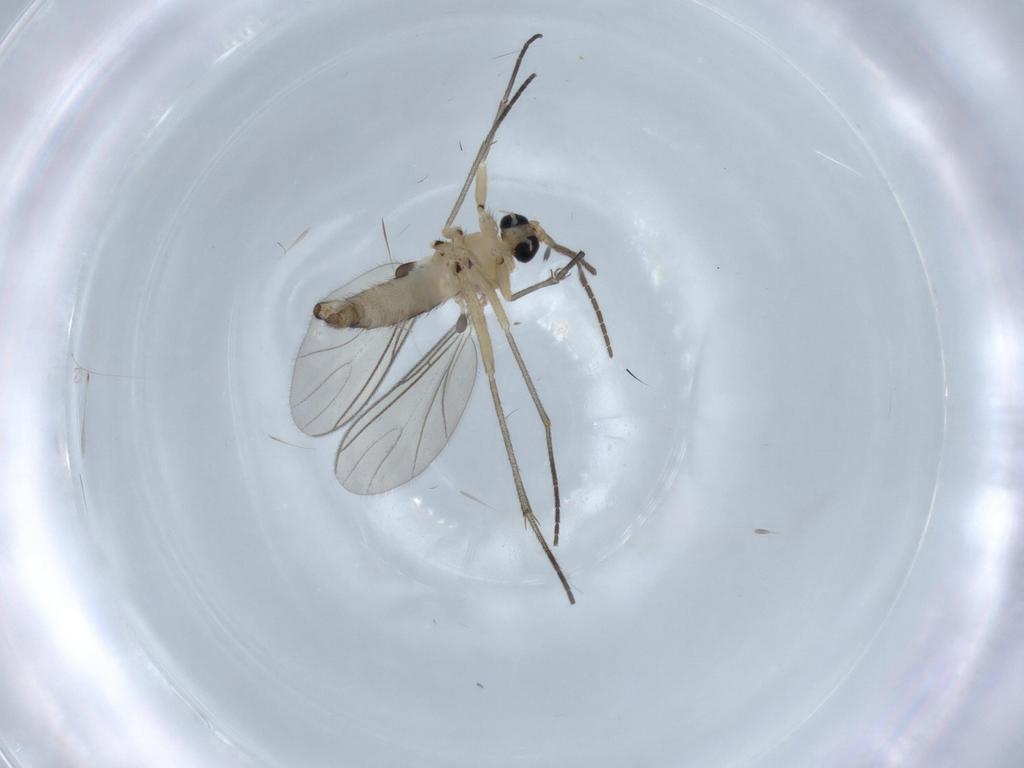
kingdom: Animalia
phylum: Arthropoda
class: Insecta
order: Diptera
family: Sciaridae
